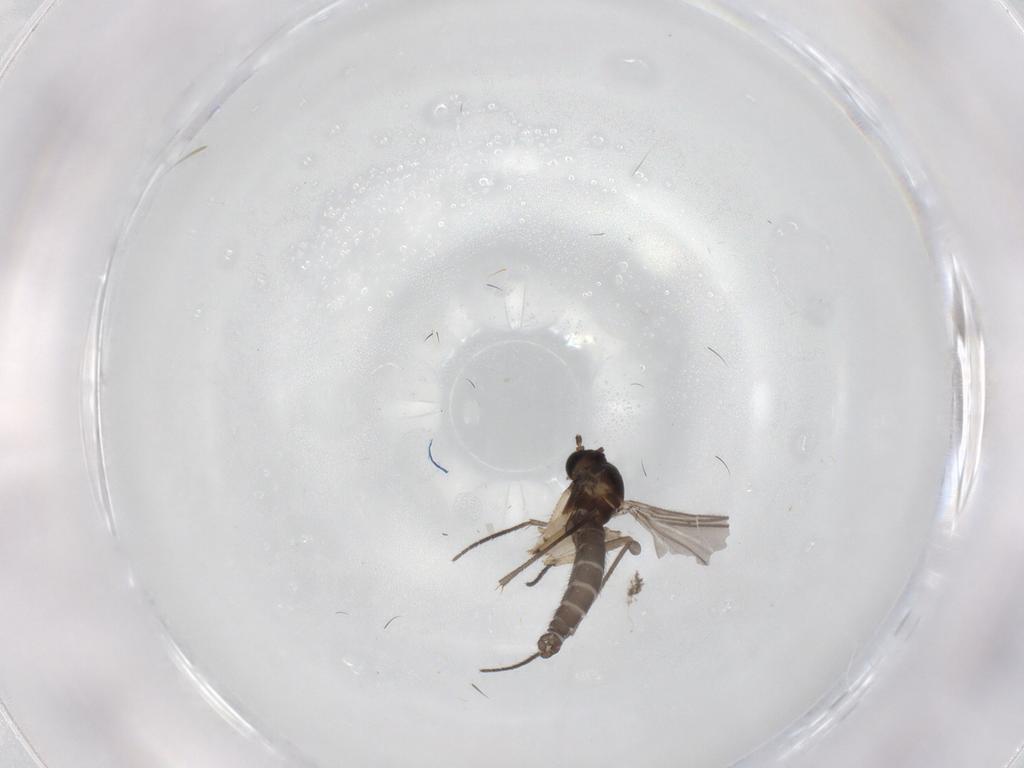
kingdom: Animalia
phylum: Arthropoda
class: Insecta
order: Diptera
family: Sciaridae
